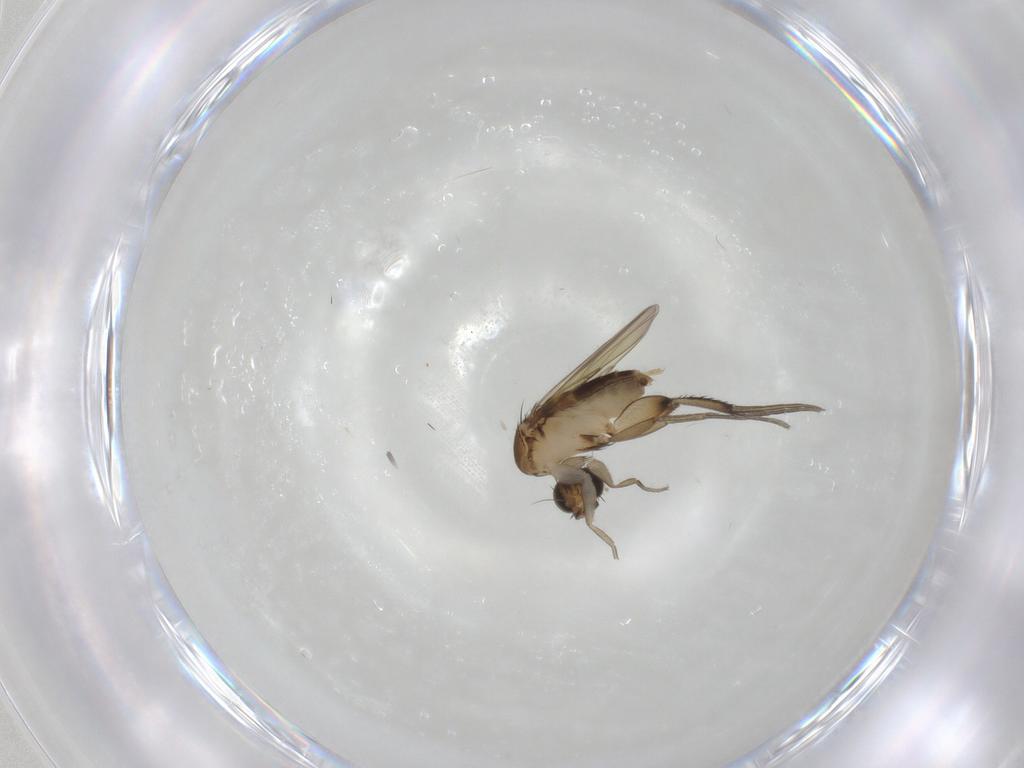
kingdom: Animalia
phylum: Arthropoda
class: Insecta
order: Diptera
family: Phoridae
